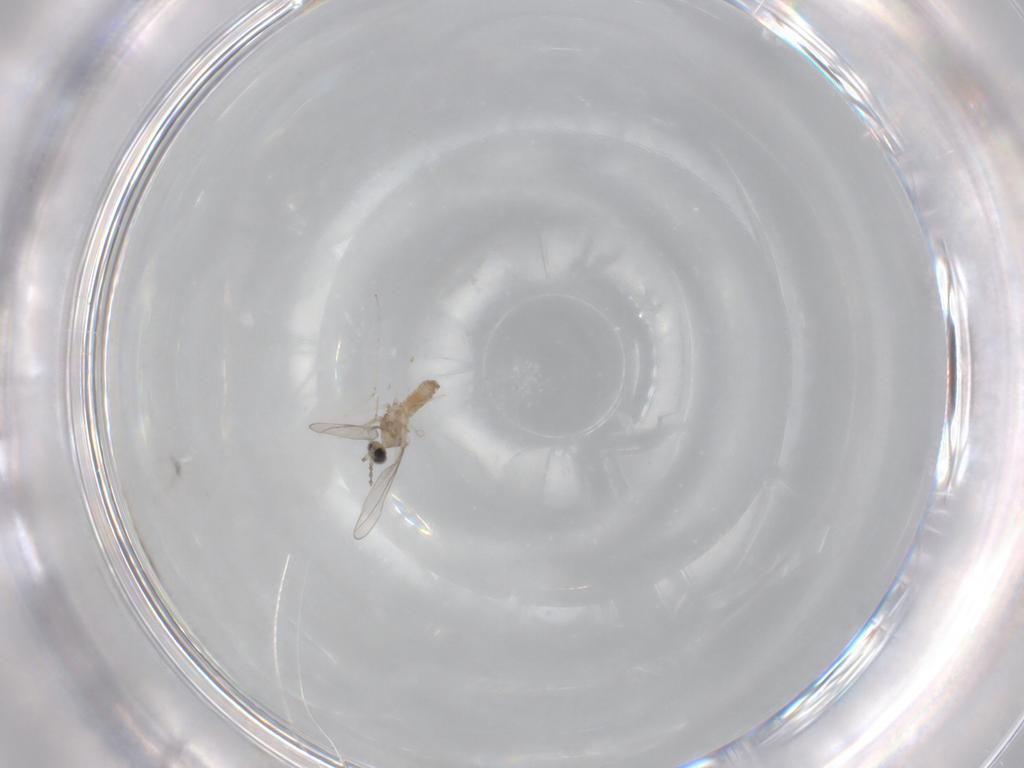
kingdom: Animalia
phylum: Arthropoda
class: Insecta
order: Diptera
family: Cecidomyiidae
